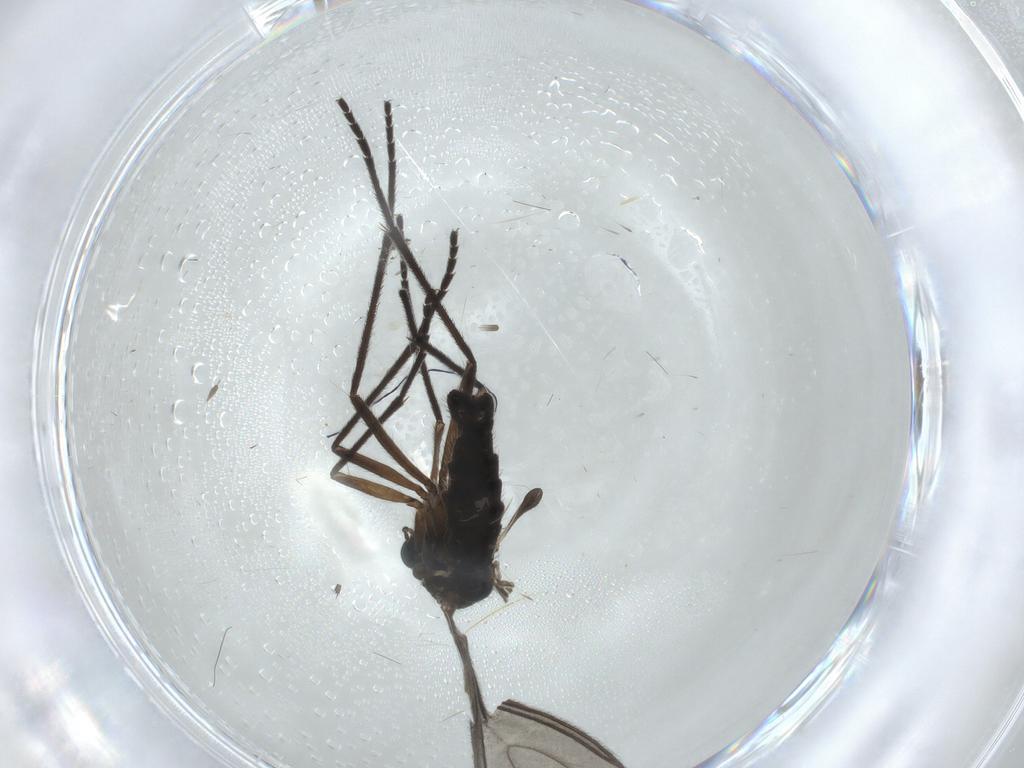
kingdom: Animalia
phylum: Arthropoda
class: Insecta
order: Diptera
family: Sciaridae
